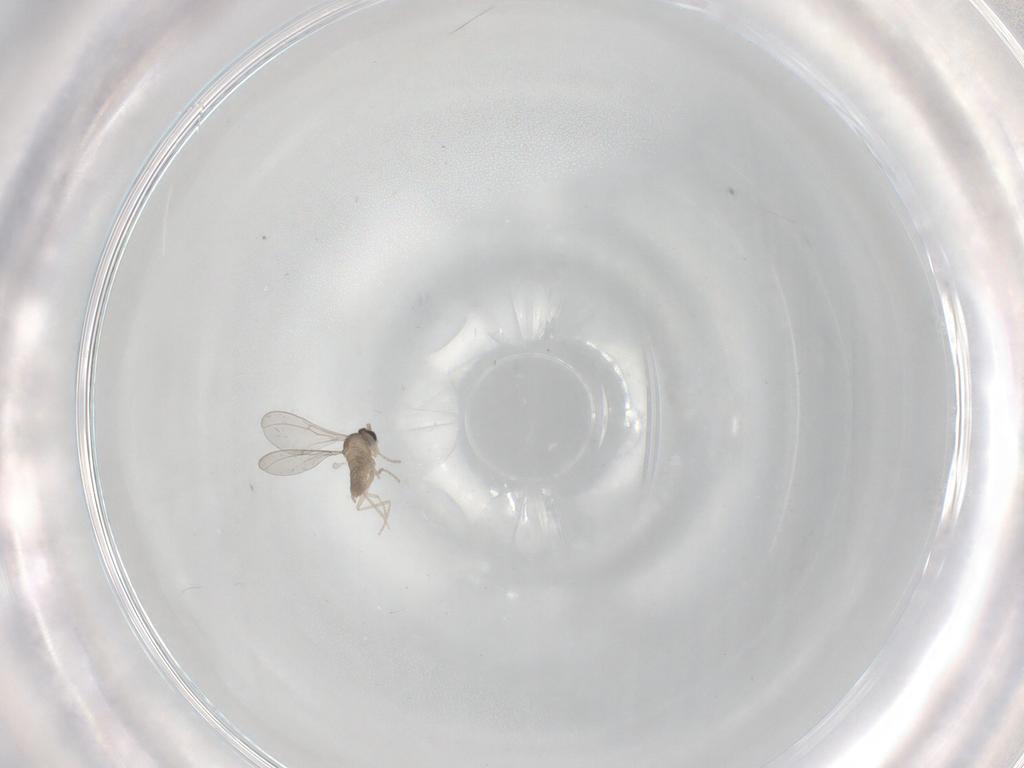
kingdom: Animalia
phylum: Arthropoda
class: Insecta
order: Diptera
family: Cecidomyiidae
